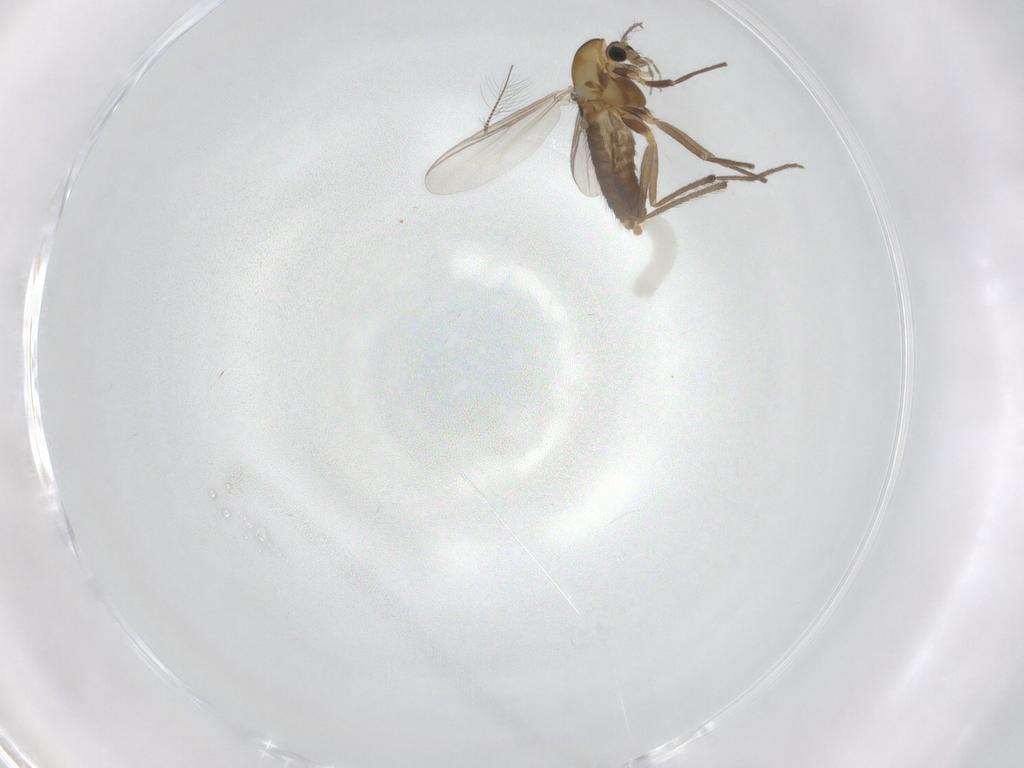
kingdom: Animalia
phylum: Arthropoda
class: Insecta
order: Diptera
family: Chironomidae
